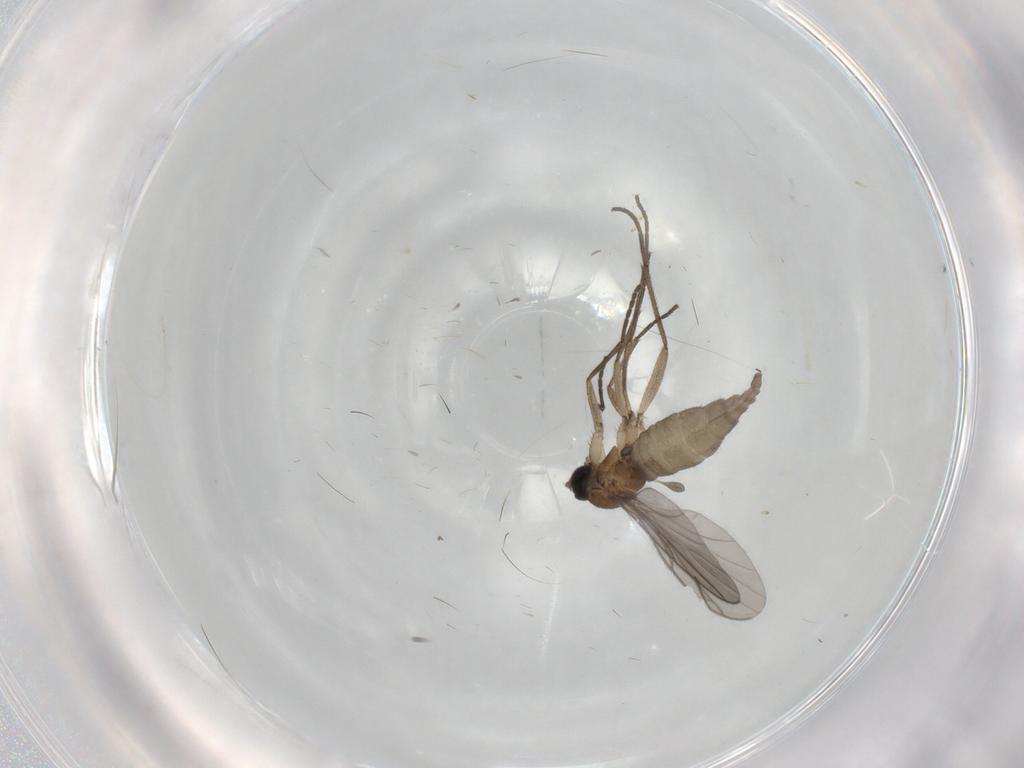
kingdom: Animalia
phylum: Arthropoda
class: Insecta
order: Diptera
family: Sciaridae
